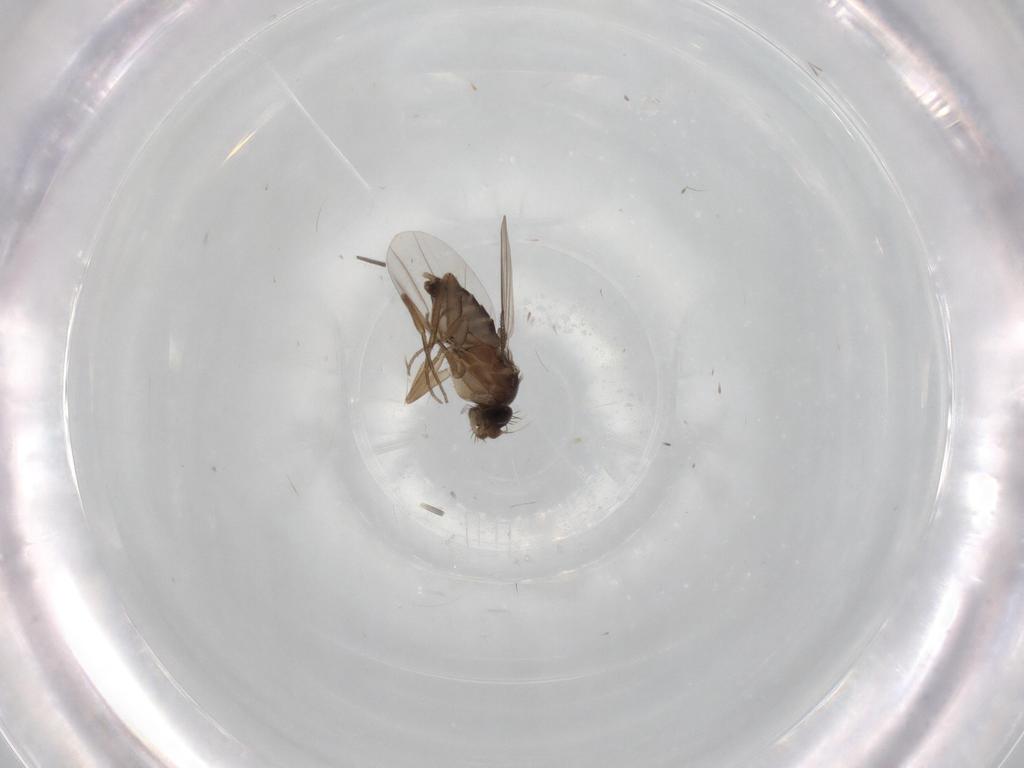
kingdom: Animalia
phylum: Arthropoda
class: Insecta
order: Diptera
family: Phoridae
